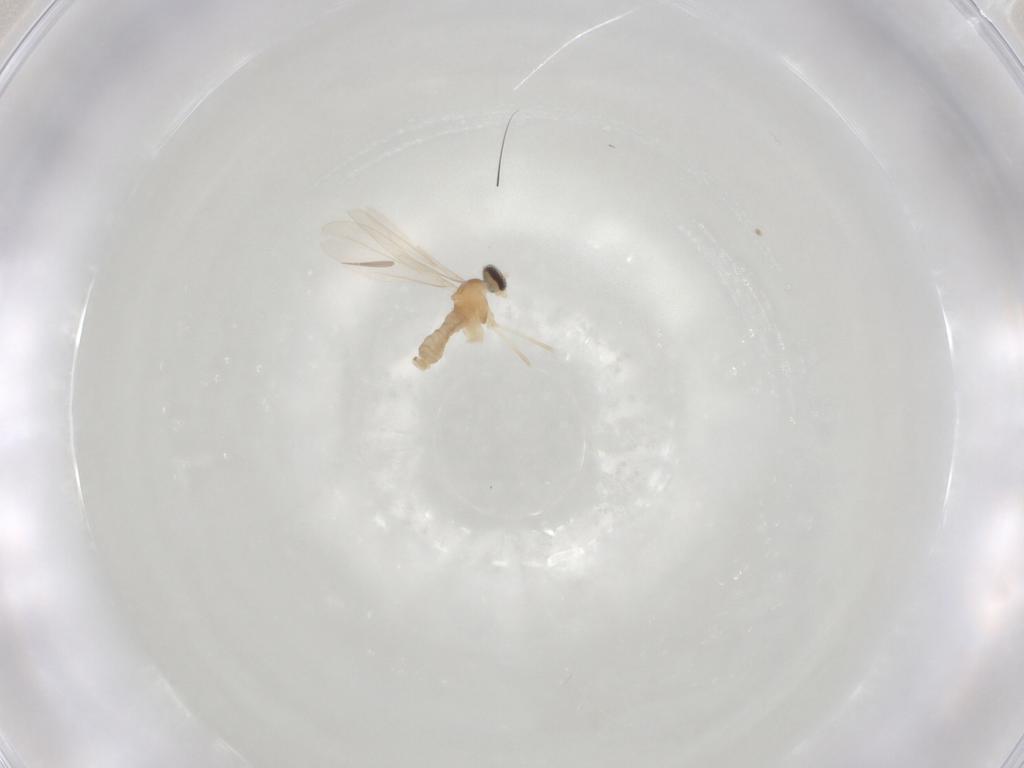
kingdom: Animalia
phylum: Arthropoda
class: Insecta
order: Diptera
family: Cecidomyiidae
